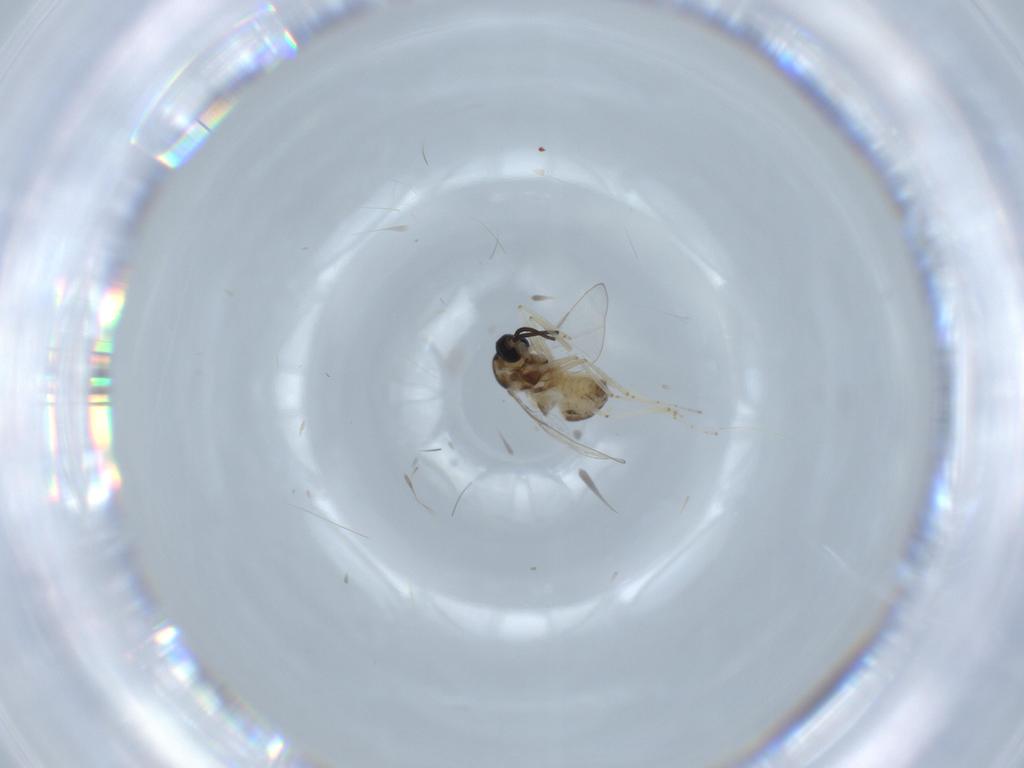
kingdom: Animalia
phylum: Arthropoda
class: Insecta
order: Diptera
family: Cecidomyiidae
